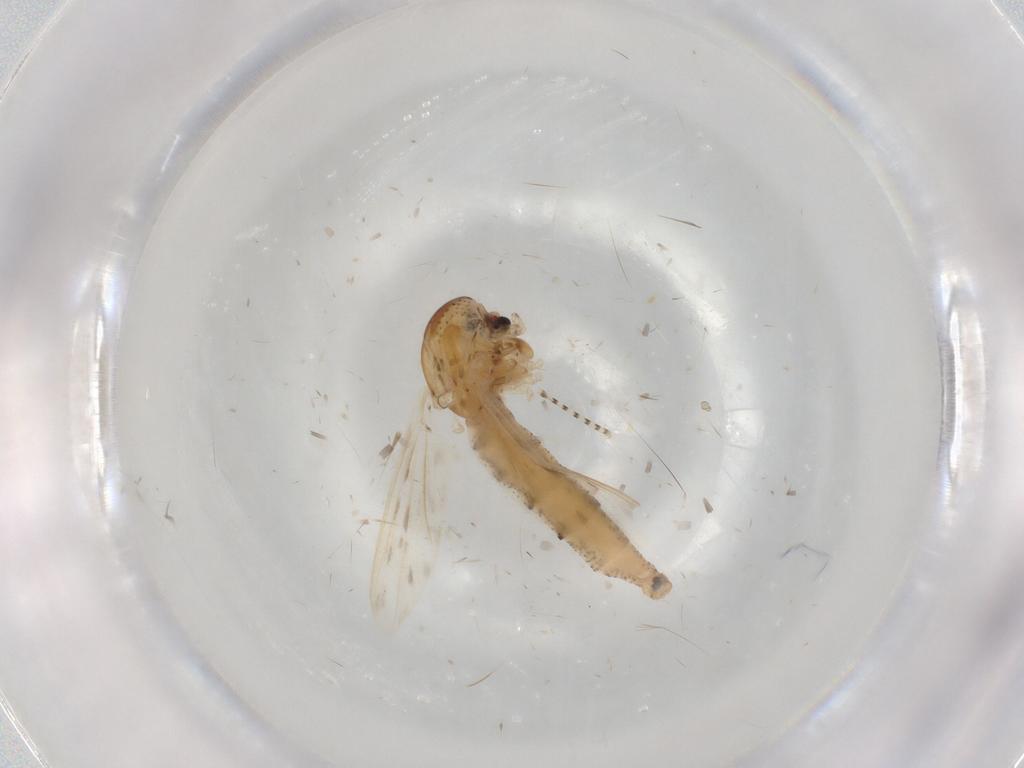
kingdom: Animalia
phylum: Arthropoda
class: Insecta
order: Diptera
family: Chaoboridae
